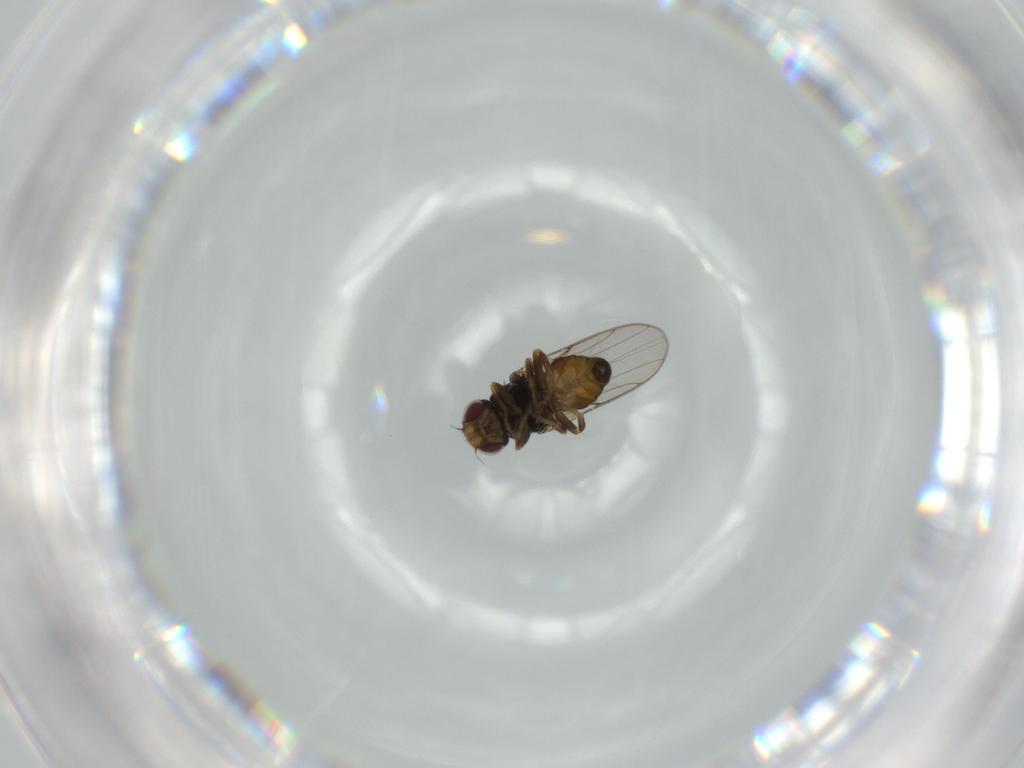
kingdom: Animalia
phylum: Arthropoda
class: Insecta
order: Diptera
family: Chloropidae
